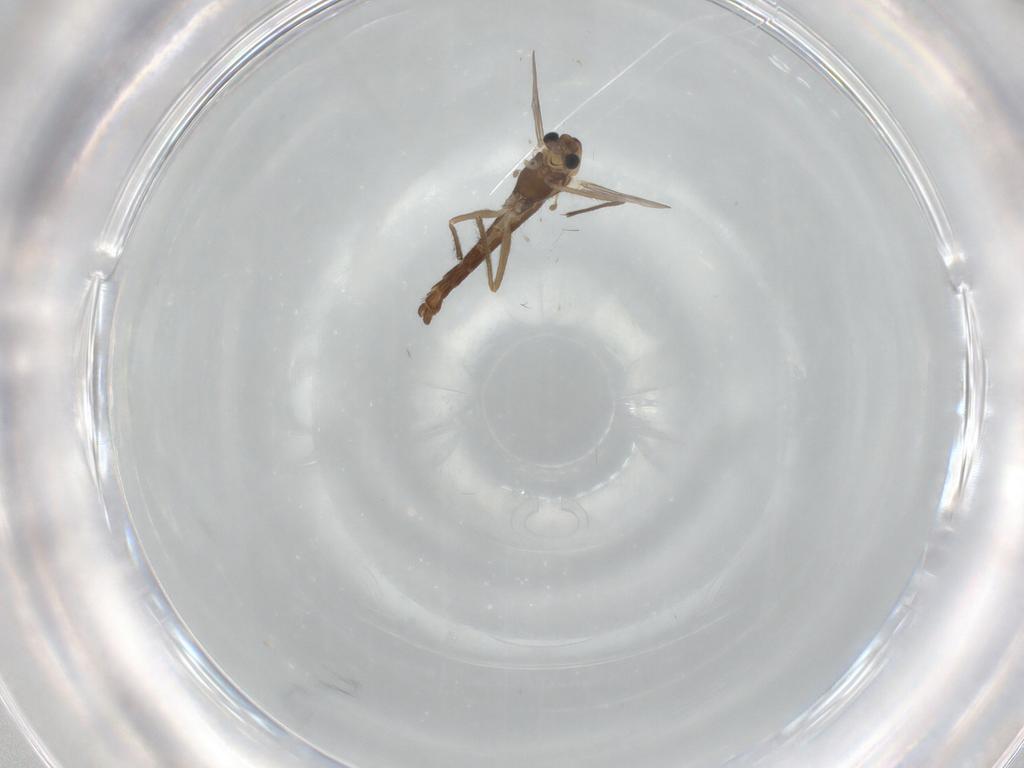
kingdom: Animalia
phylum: Arthropoda
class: Insecta
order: Diptera
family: Chironomidae
